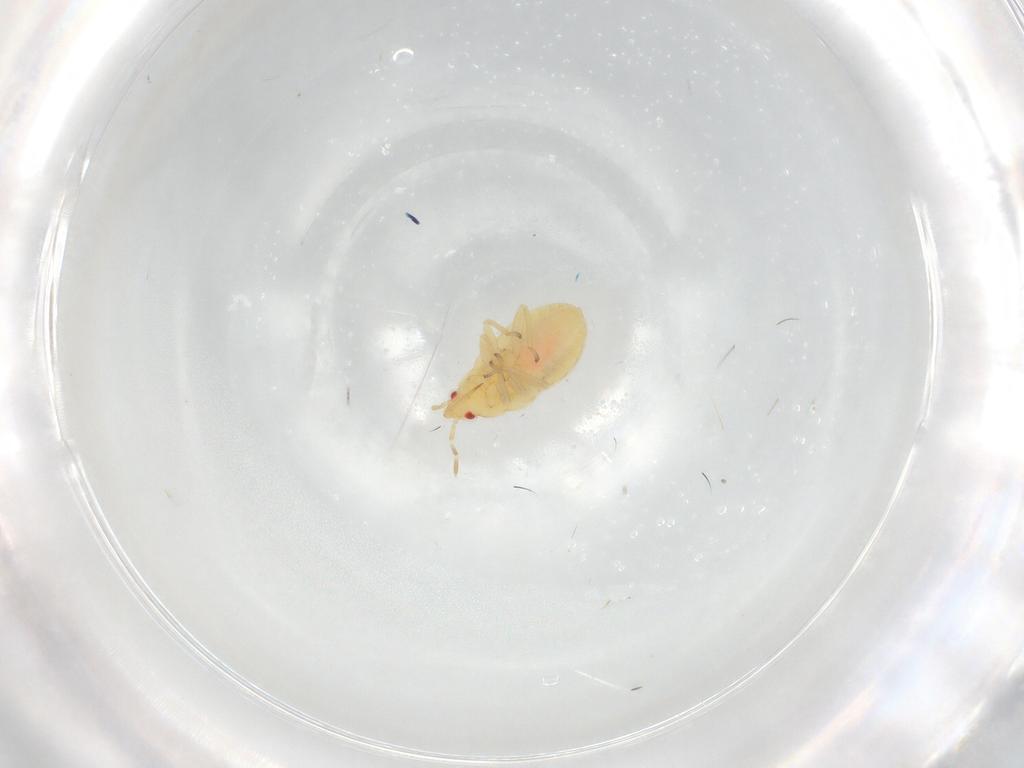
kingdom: Animalia
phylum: Arthropoda
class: Insecta
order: Hemiptera
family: Anthocoridae
